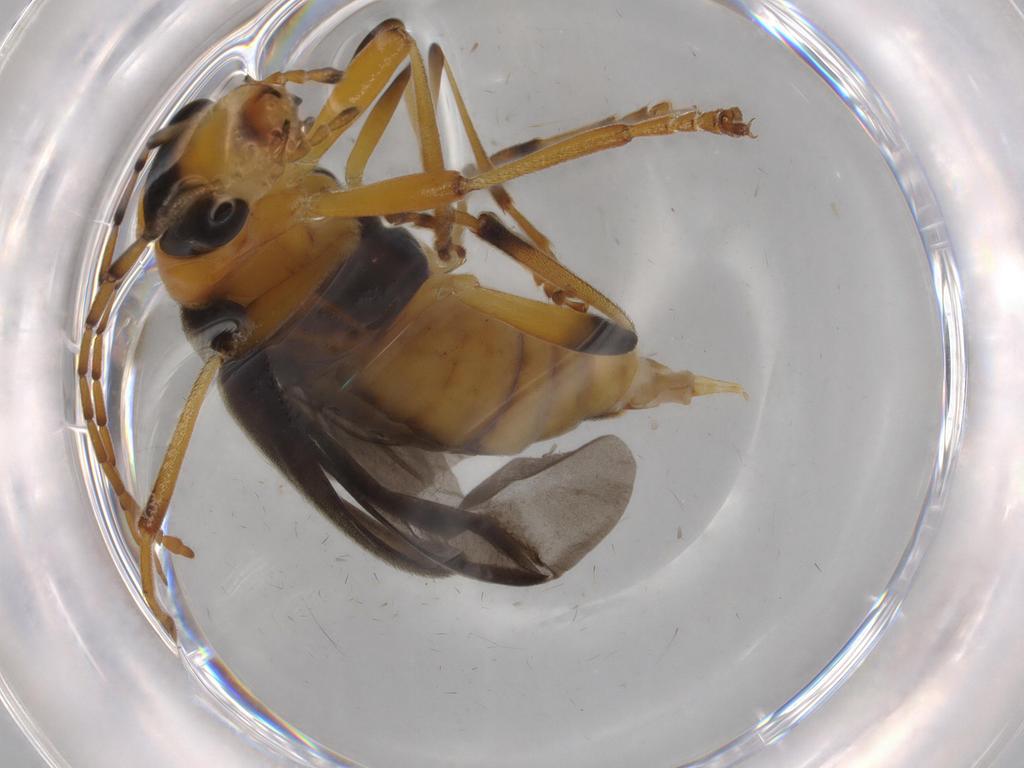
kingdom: Animalia
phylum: Arthropoda
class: Insecta
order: Coleoptera
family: Oedemeridae
